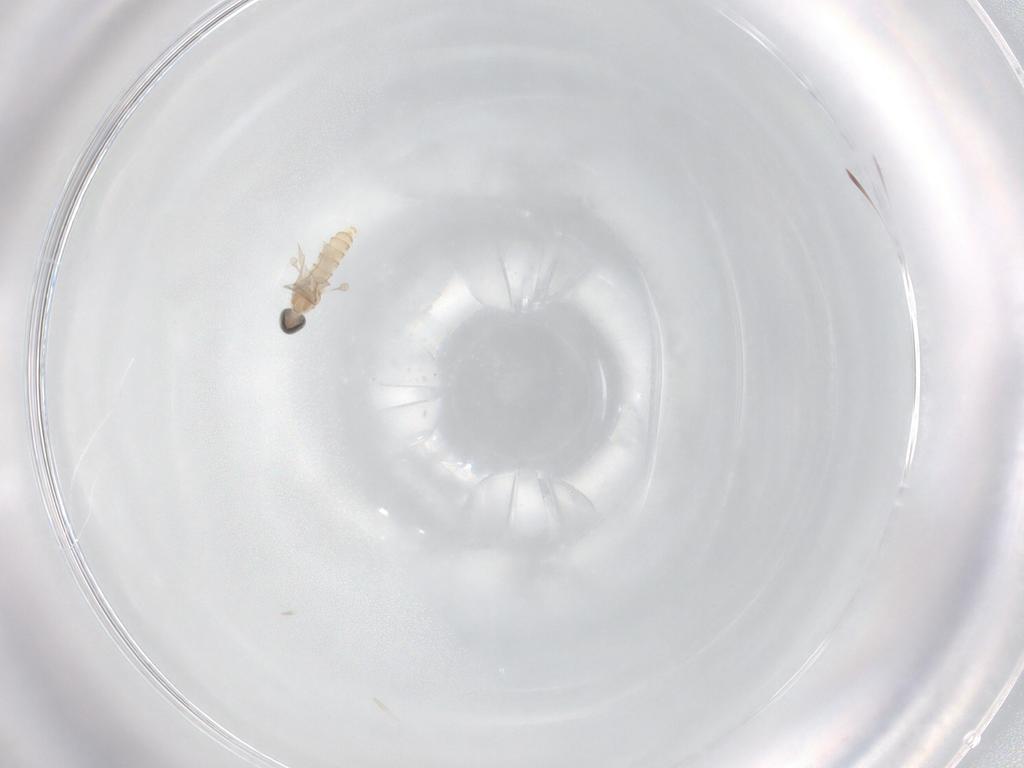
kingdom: Animalia
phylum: Arthropoda
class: Insecta
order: Diptera
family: Cecidomyiidae
